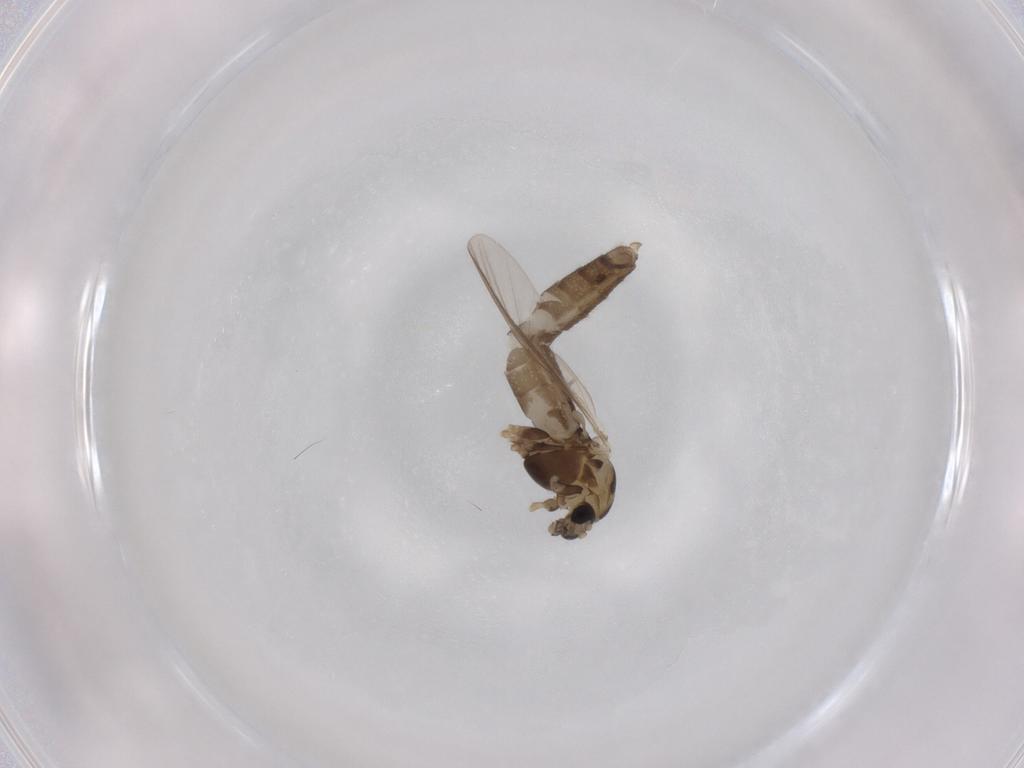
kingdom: Animalia
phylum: Arthropoda
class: Insecta
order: Diptera
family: Chironomidae
